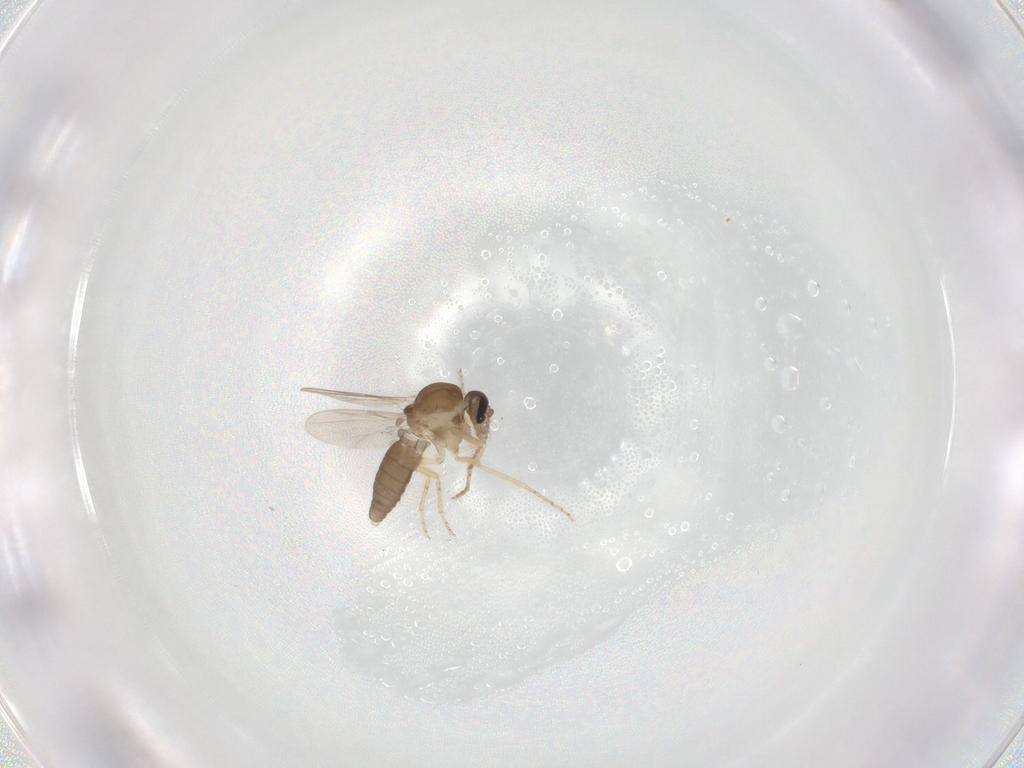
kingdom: Animalia
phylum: Arthropoda
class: Insecta
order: Diptera
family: Ceratopogonidae
